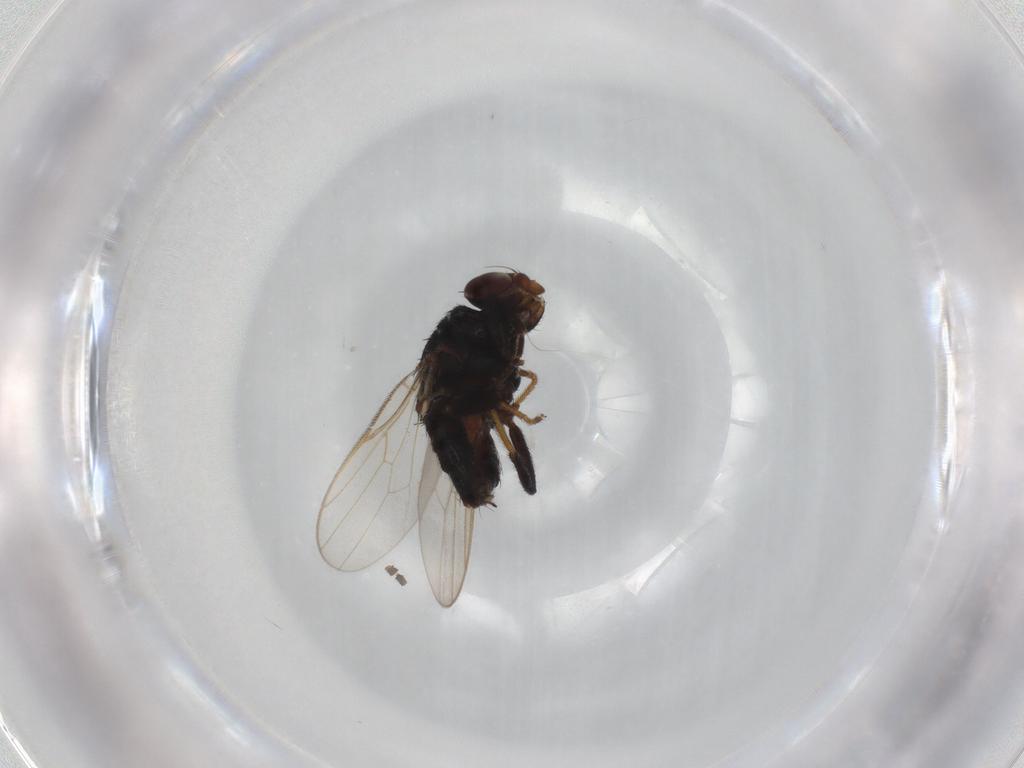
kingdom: Animalia
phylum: Arthropoda
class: Insecta
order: Diptera
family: Chloropidae
